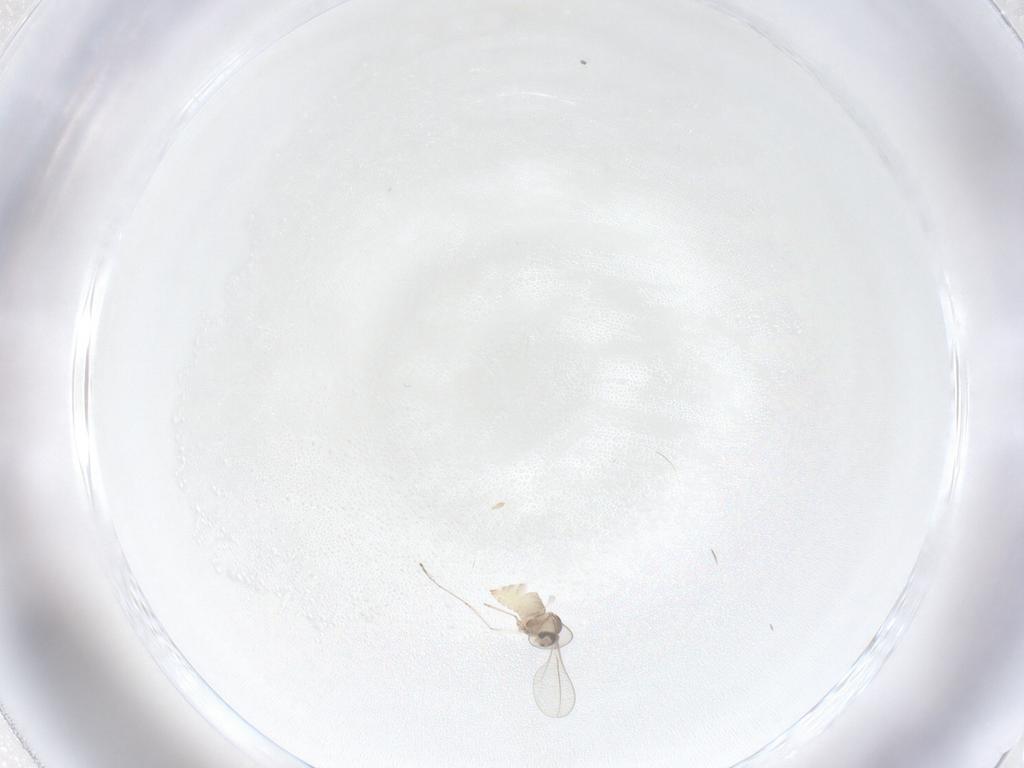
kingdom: Animalia
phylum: Arthropoda
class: Insecta
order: Diptera
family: Cecidomyiidae
